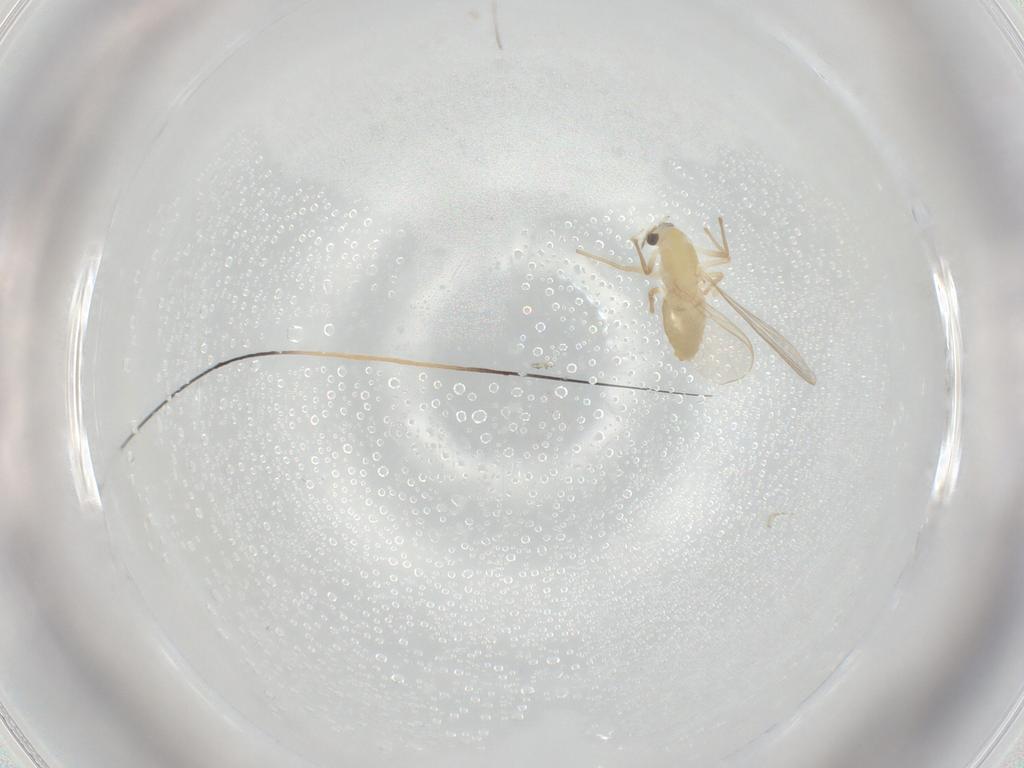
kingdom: Animalia
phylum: Arthropoda
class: Insecta
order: Diptera
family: Chironomidae
